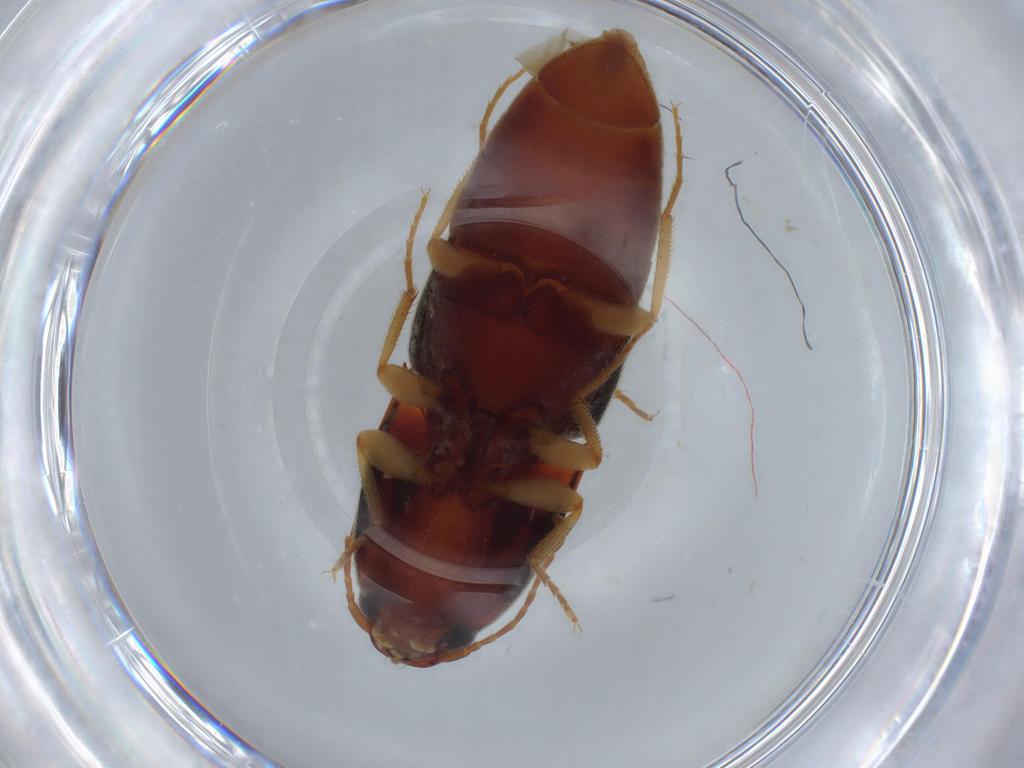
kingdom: Animalia
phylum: Arthropoda
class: Insecta
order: Coleoptera
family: Elateridae
